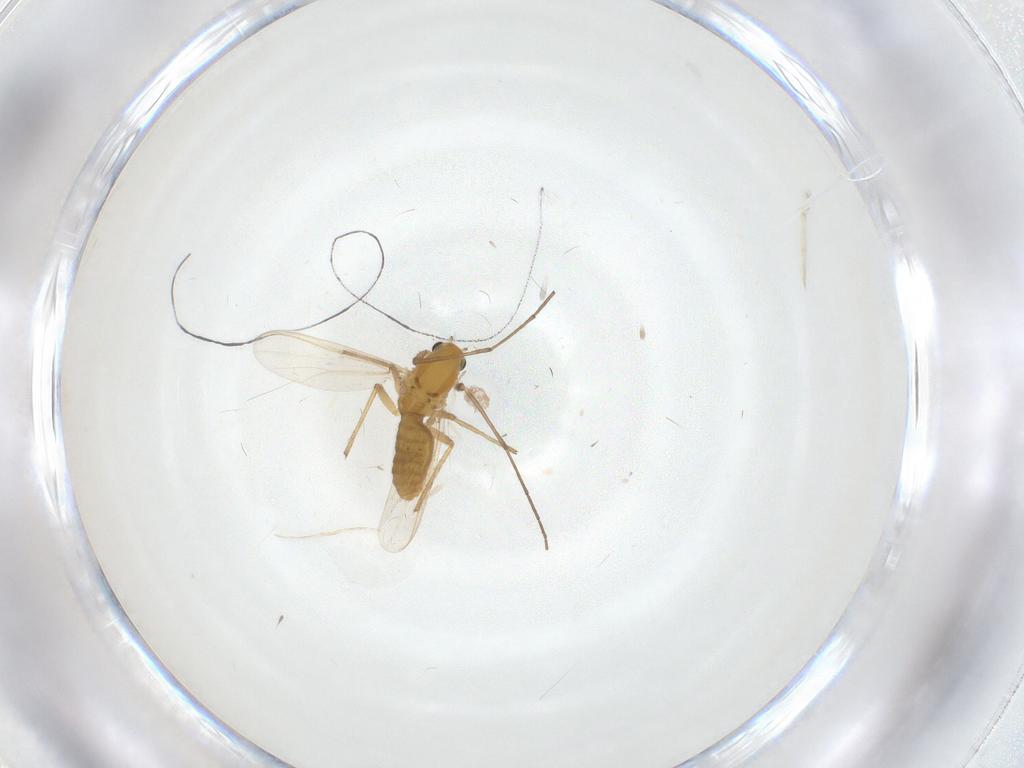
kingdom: Animalia
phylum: Arthropoda
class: Insecta
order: Diptera
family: Chironomidae
